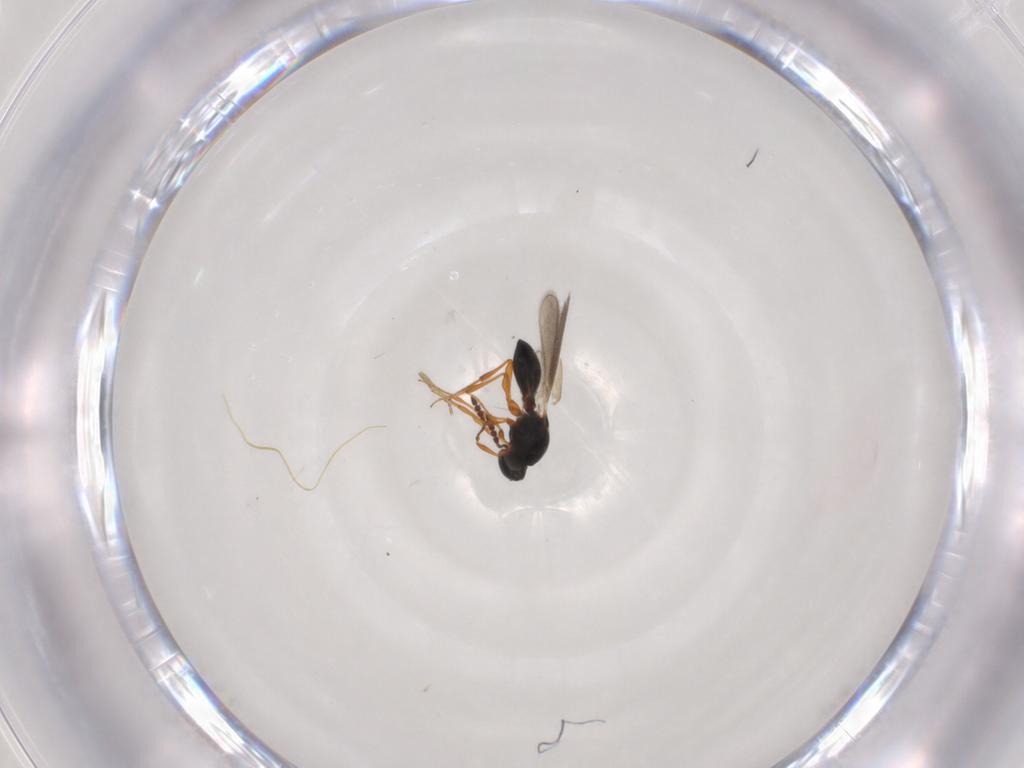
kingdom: Animalia
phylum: Arthropoda
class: Insecta
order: Hymenoptera
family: Platygastridae
